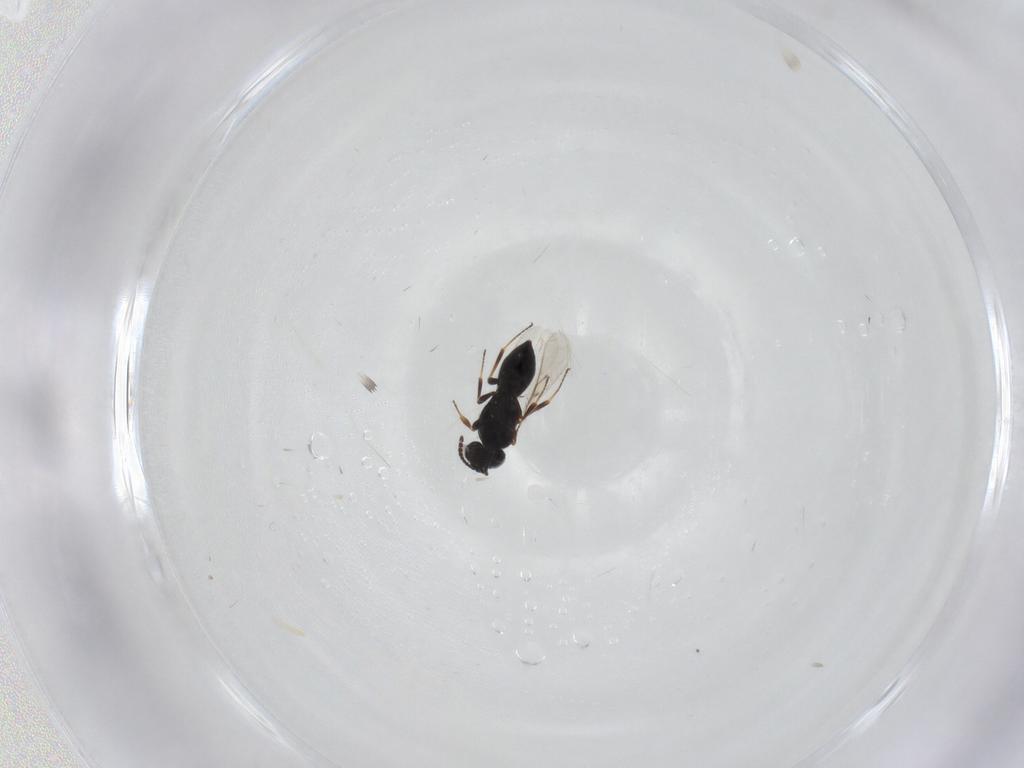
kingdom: Animalia
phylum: Arthropoda
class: Insecta
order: Hymenoptera
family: Scelionidae
